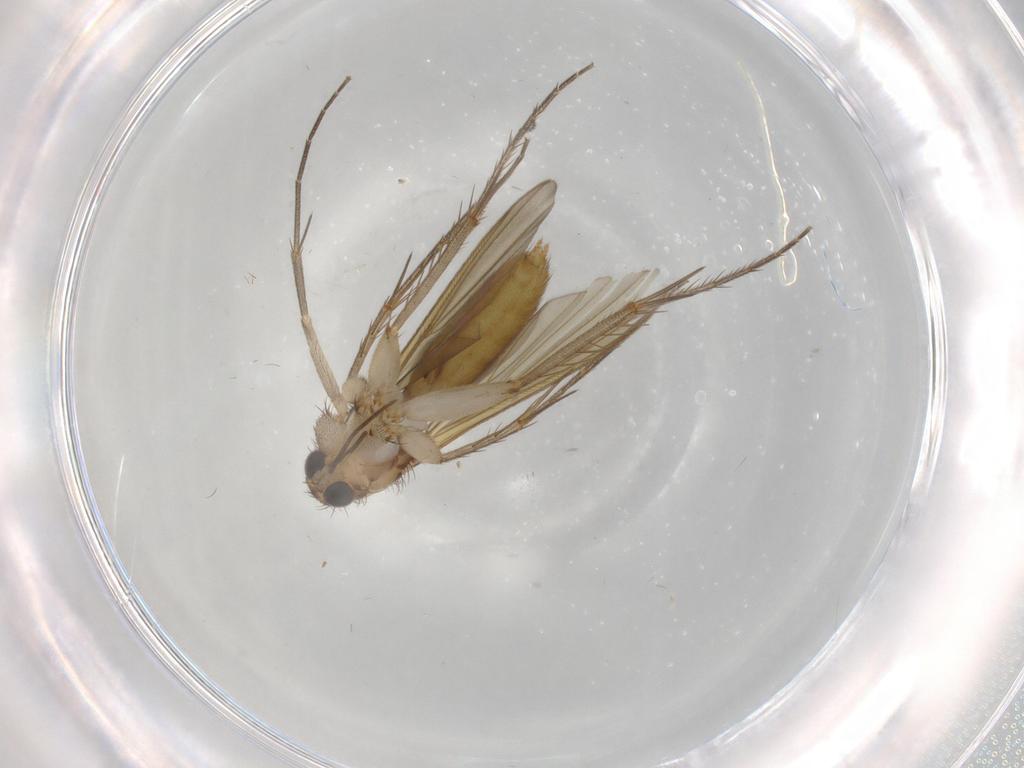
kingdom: Animalia
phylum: Arthropoda
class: Insecta
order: Diptera
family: Mycetophilidae
